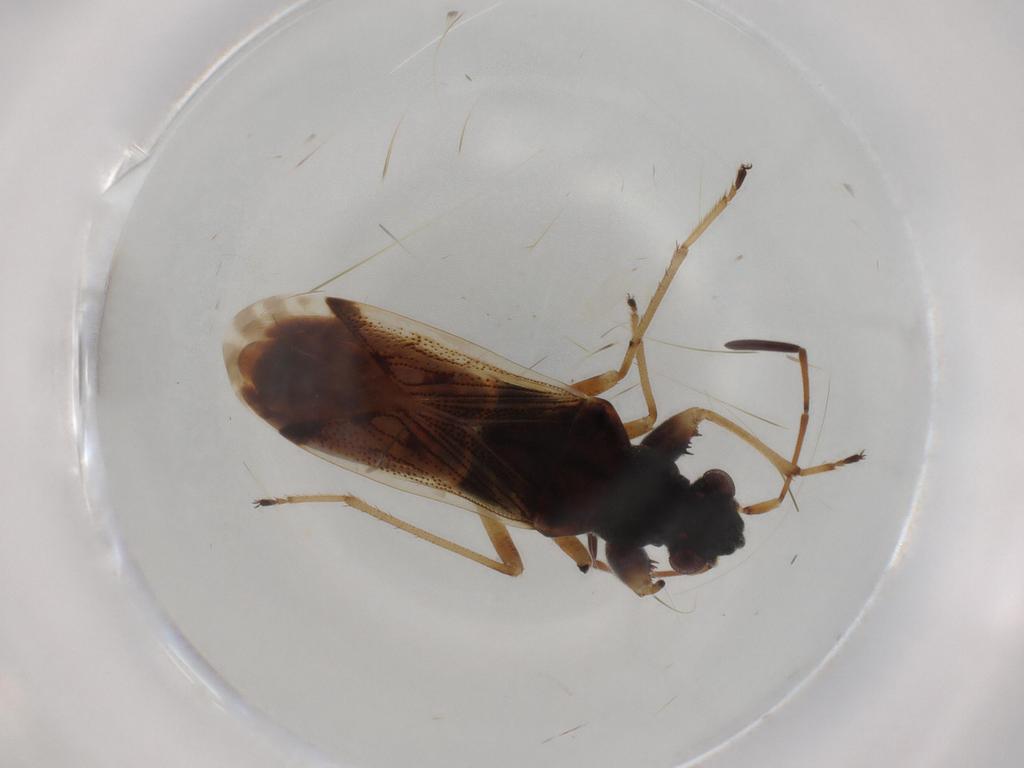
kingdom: Animalia
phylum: Arthropoda
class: Insecta
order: Hemiptera
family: Rhyparochromidae
